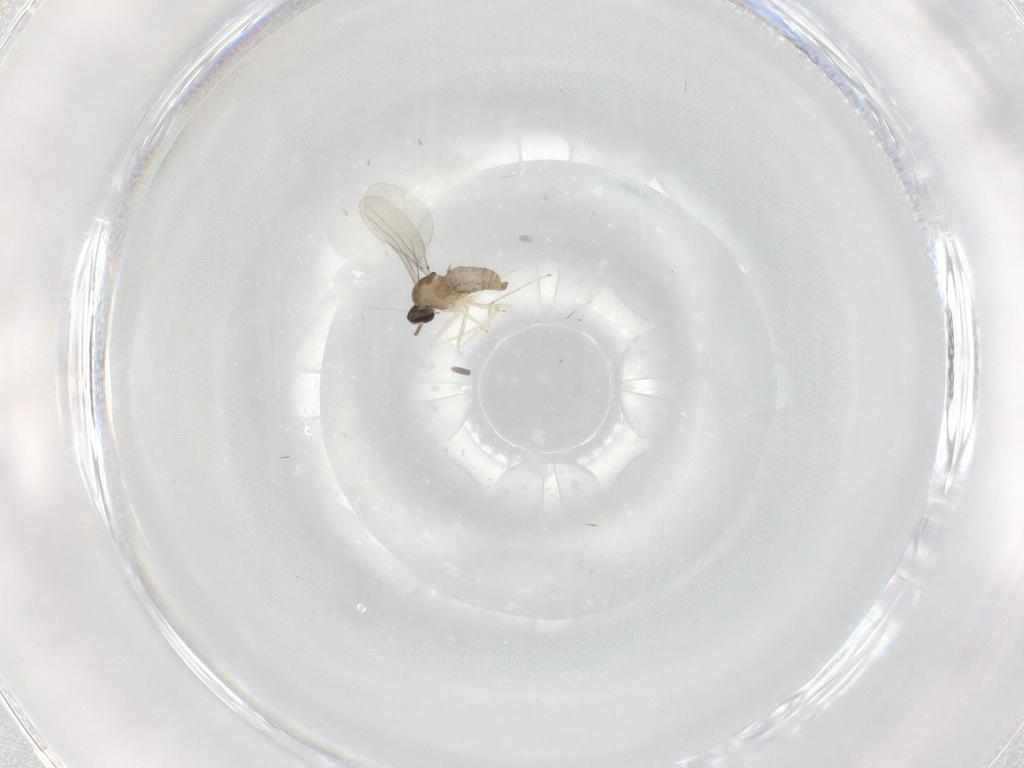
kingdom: Animalia
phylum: Arthropoda
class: Insecta
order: Diptera
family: Cecidomyiidae
